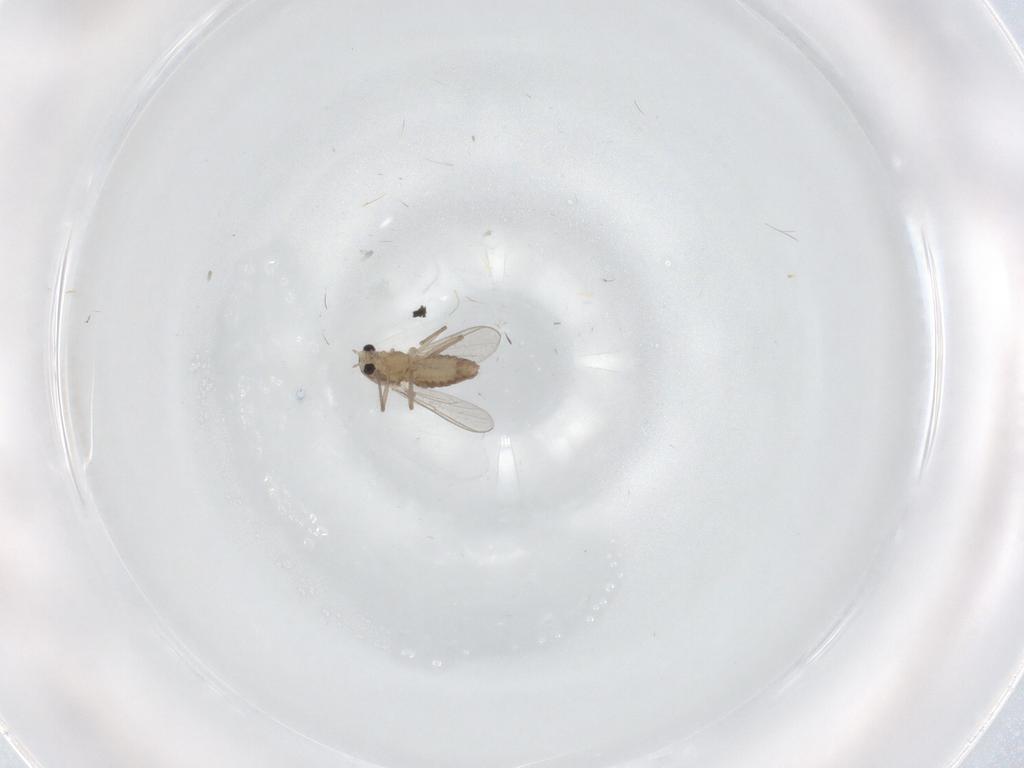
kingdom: Animalia
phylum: Arthropoda
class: Insecta
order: Diptera
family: Chironomidae
